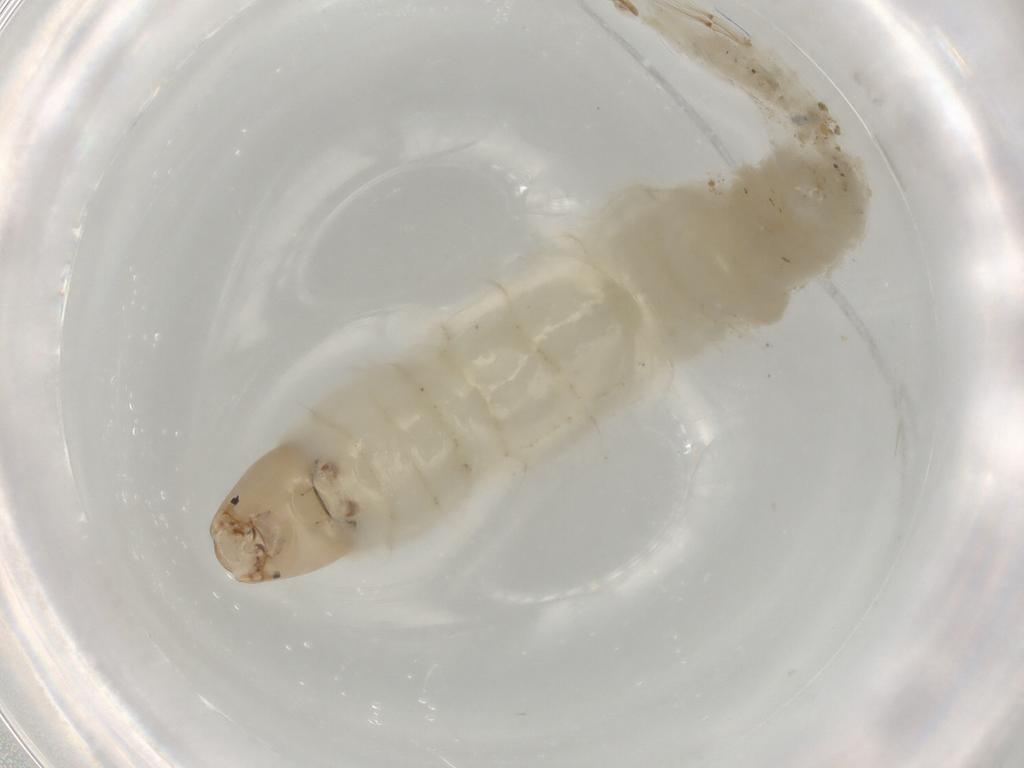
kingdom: Animalia
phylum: Arthropoda
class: Insecta
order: Diptera
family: Chironomidae
